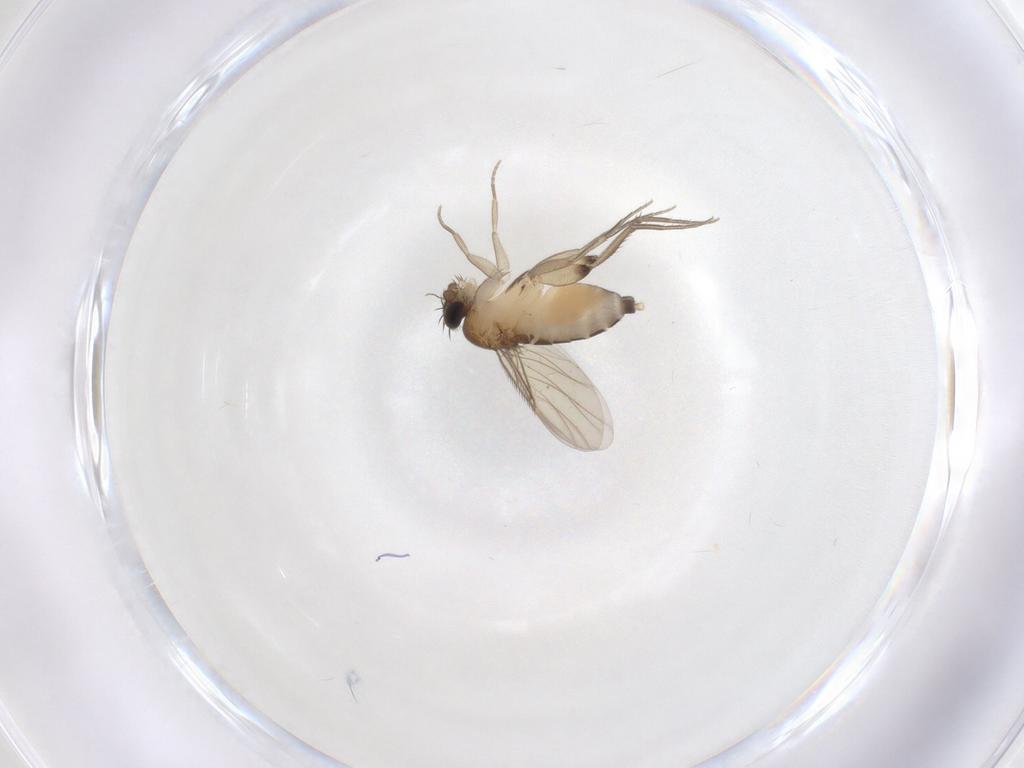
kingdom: Animalia
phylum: Arthropoda
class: Insecta
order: Diptera
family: Phoridae
